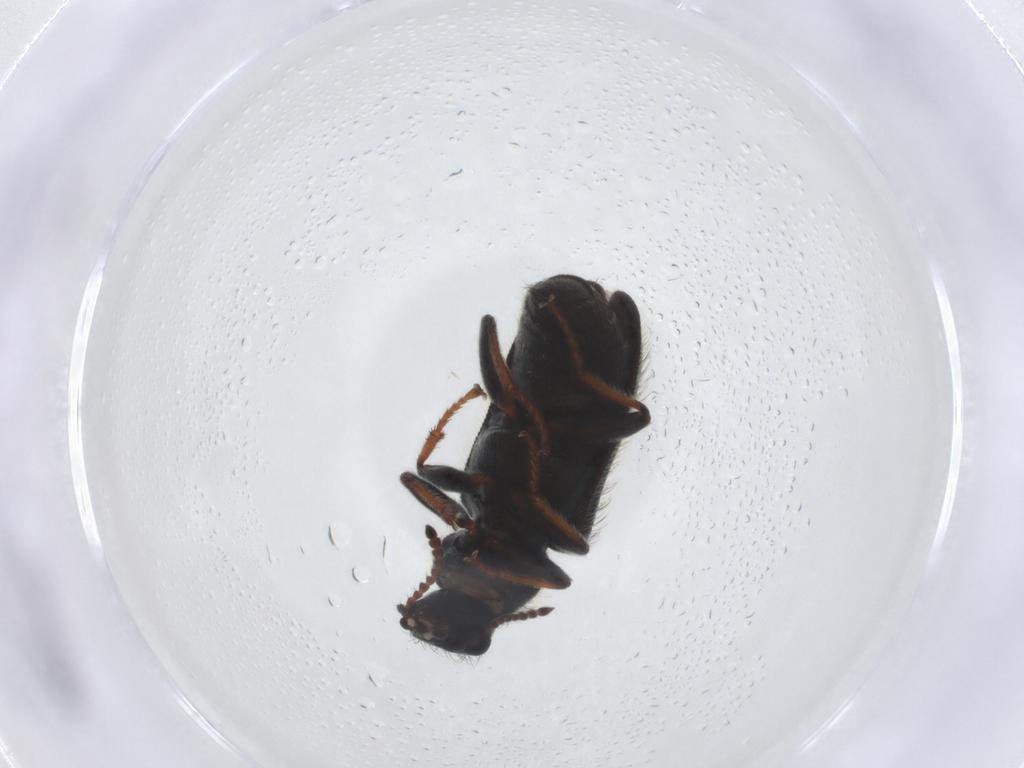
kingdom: Animalia
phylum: Arthropoda
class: Insecta
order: Coleoptera
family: Melyridae
